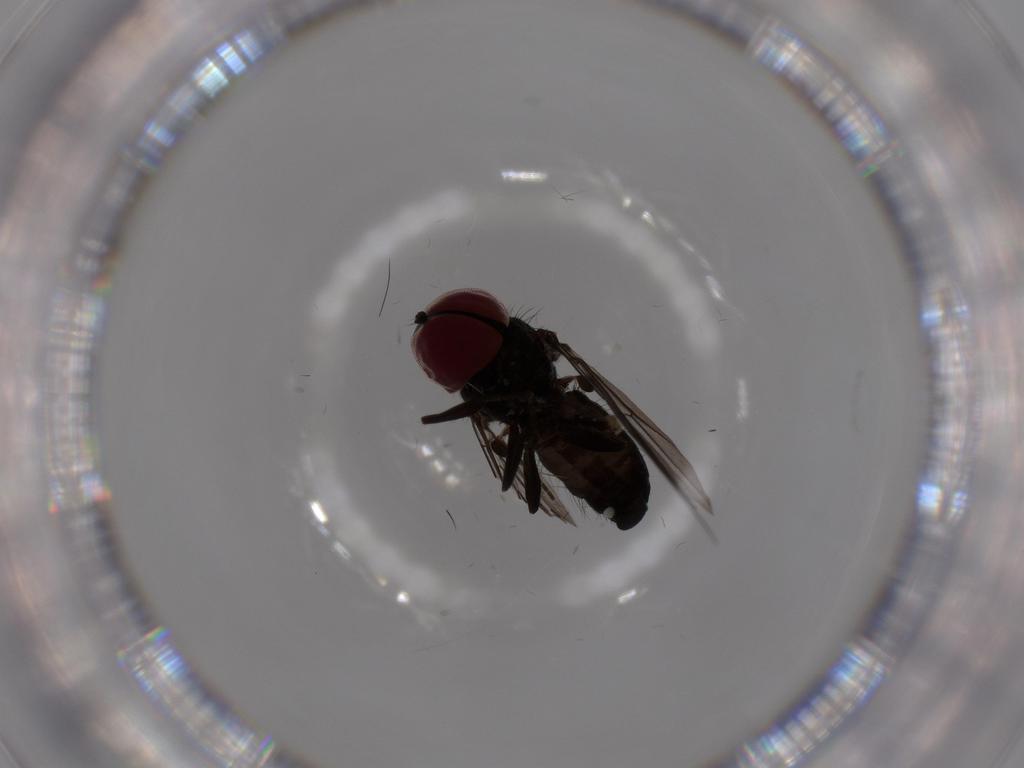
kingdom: Animalia
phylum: Arthropoda
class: Insecta
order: Diptera
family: Pipunculidae
